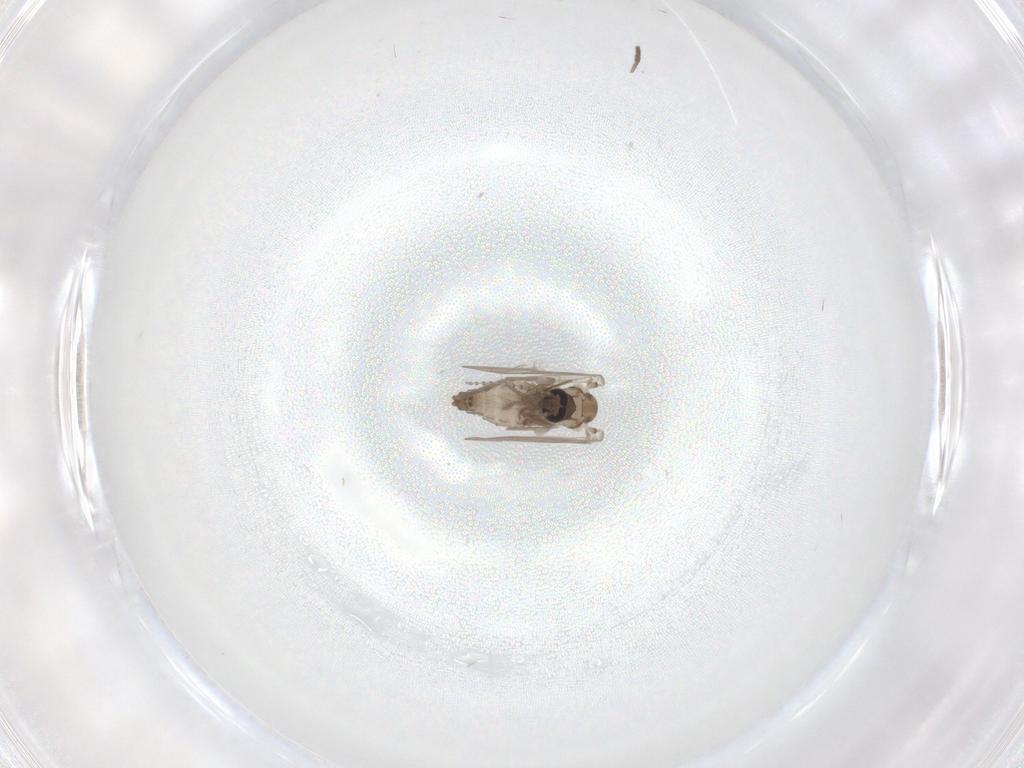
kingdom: Animalia
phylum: Arthropoda
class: Insecta
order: Diptera
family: Psychodidae
